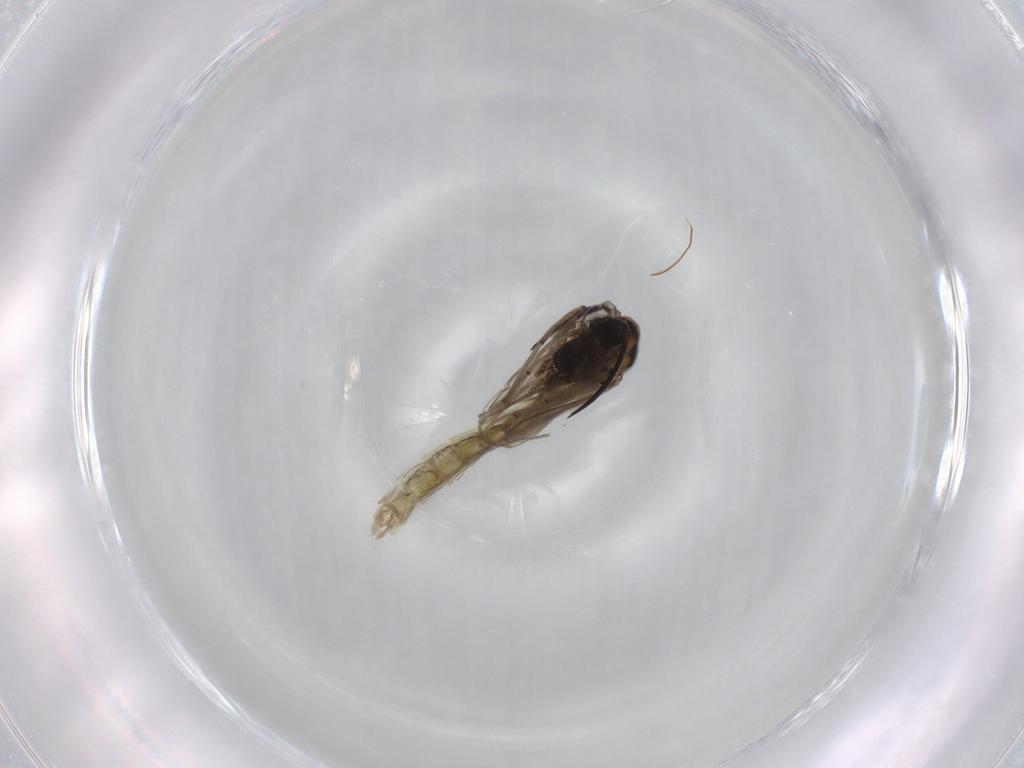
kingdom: Animalia
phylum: Arthropoda
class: Insecta
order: Diptera
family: Chironomidae
